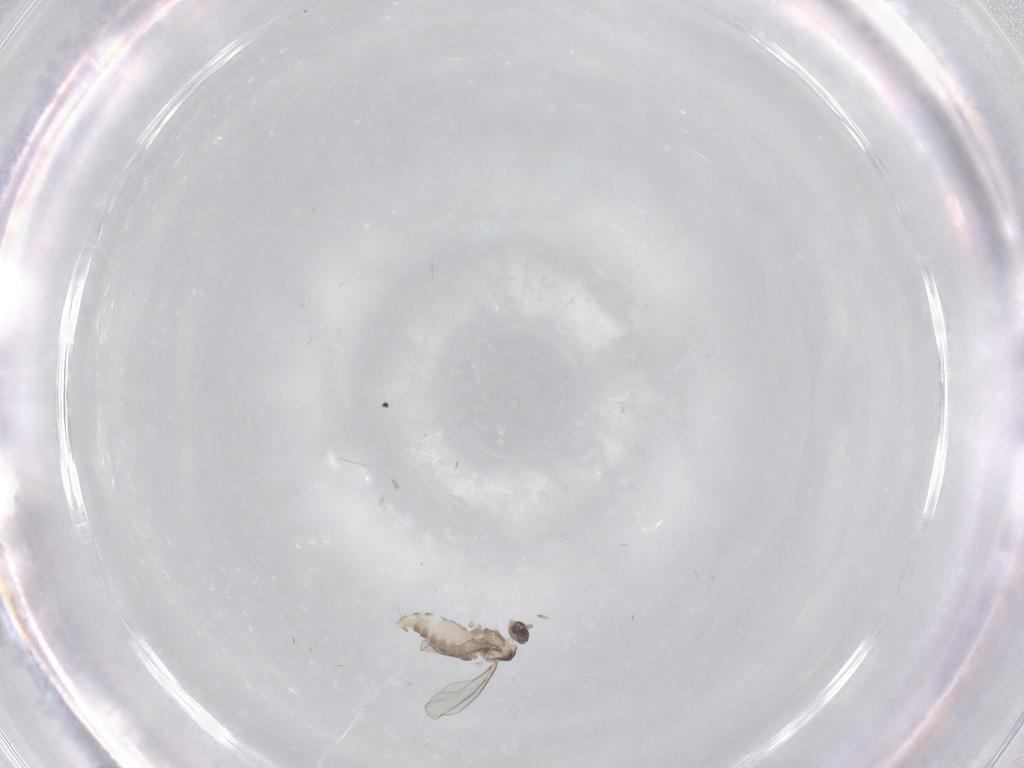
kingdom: Animalia
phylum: Arthropoda
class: Insecta
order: Diptera
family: Cecidomyiidae
